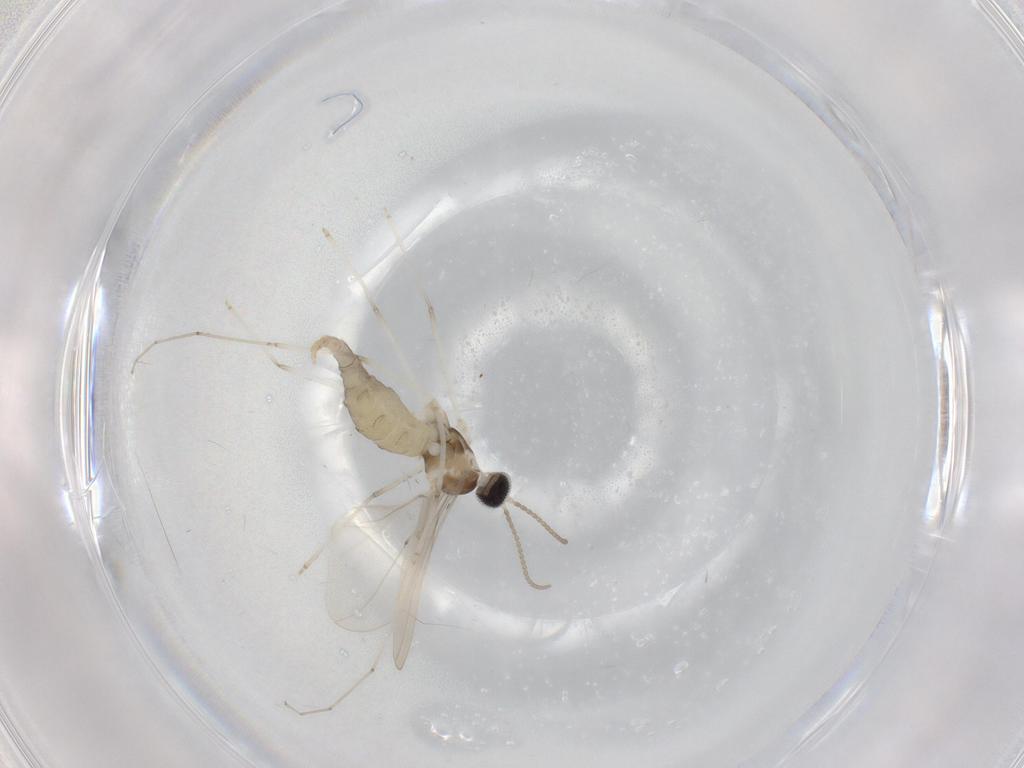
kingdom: Animalia
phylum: Arthropoda
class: Insecta
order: Diptera
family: Cecidomyiidae
